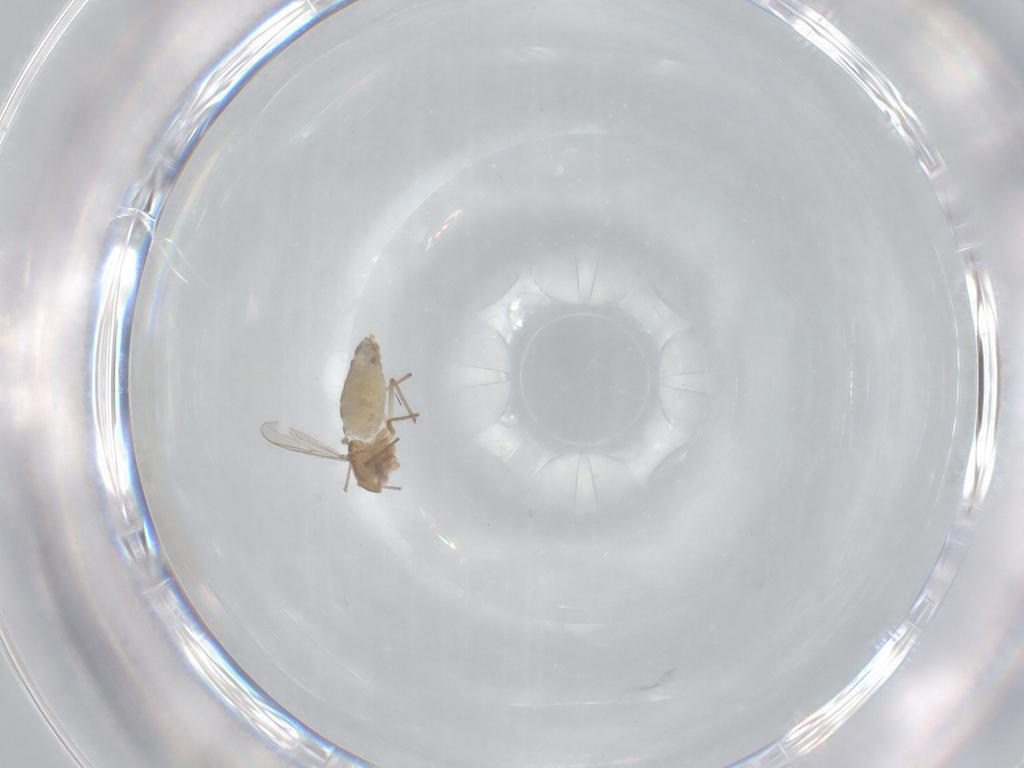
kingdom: Animalia
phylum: Arthropoda
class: Insecta
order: Diptera
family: Chironomidae
